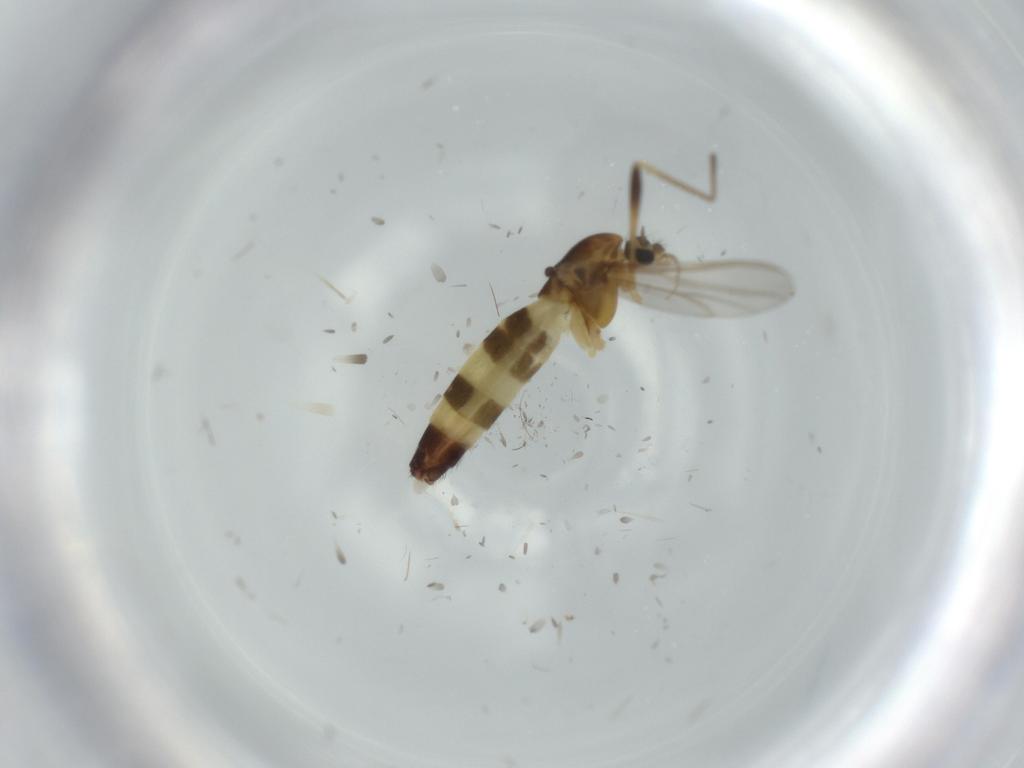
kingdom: Animalia
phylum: Arthropoda
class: Insecta
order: Diptera
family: Chironomidae
